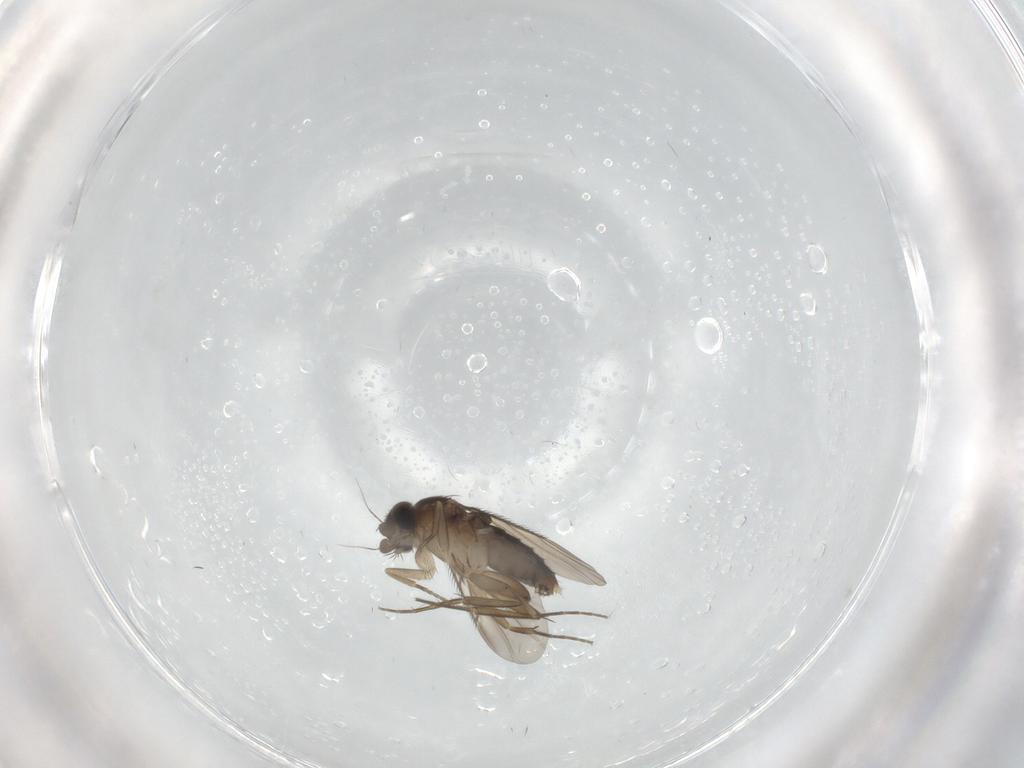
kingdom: Animalia
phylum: Arthropoda
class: Insecta
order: Diptera
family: Phoridae
